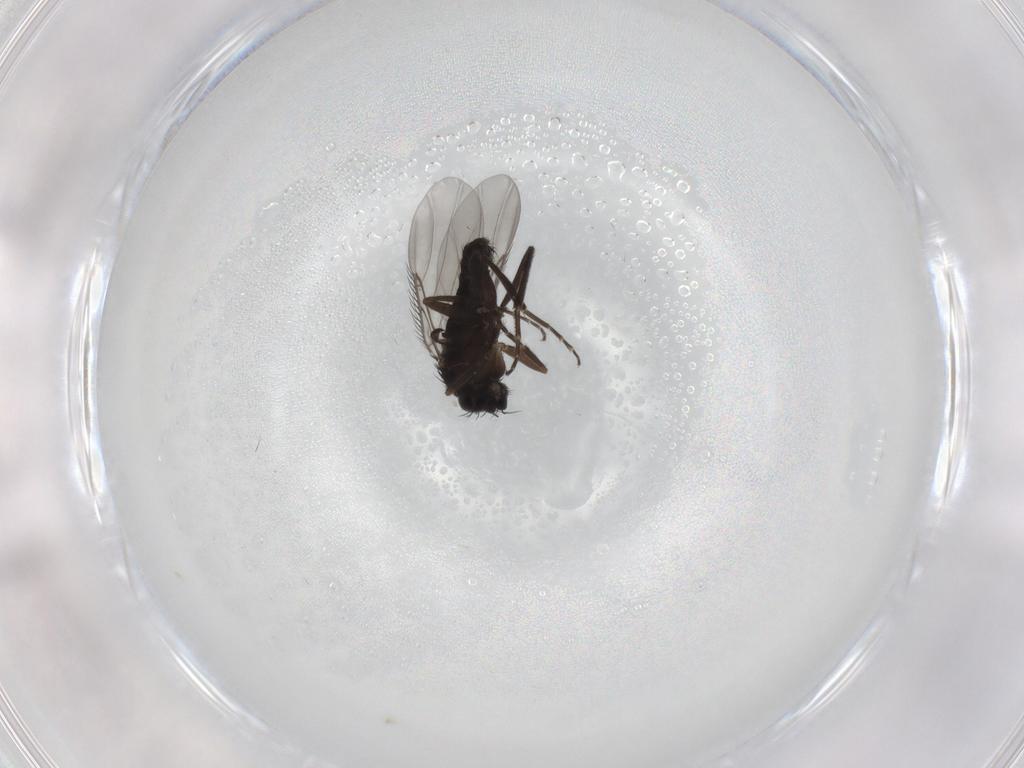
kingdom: Animalia
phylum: Arthropoda
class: Insecta
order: Diptera
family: Phoridae
